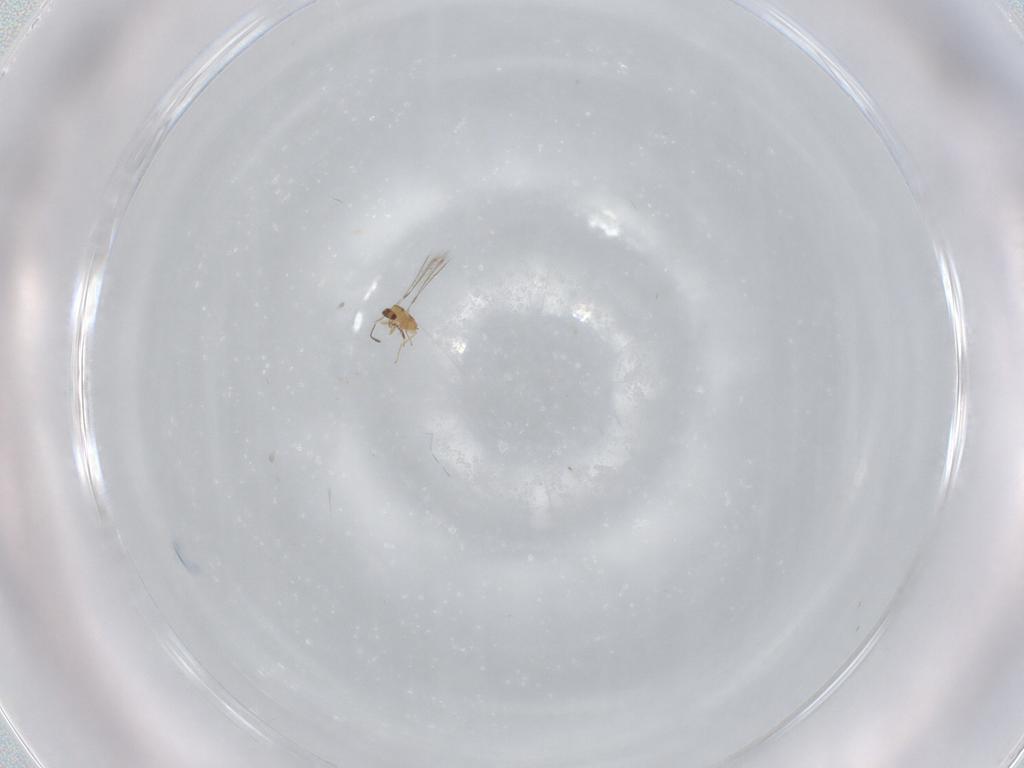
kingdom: Animalia
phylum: Arthropoda
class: Insecta
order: Hymenoptera
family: Mymaridae
